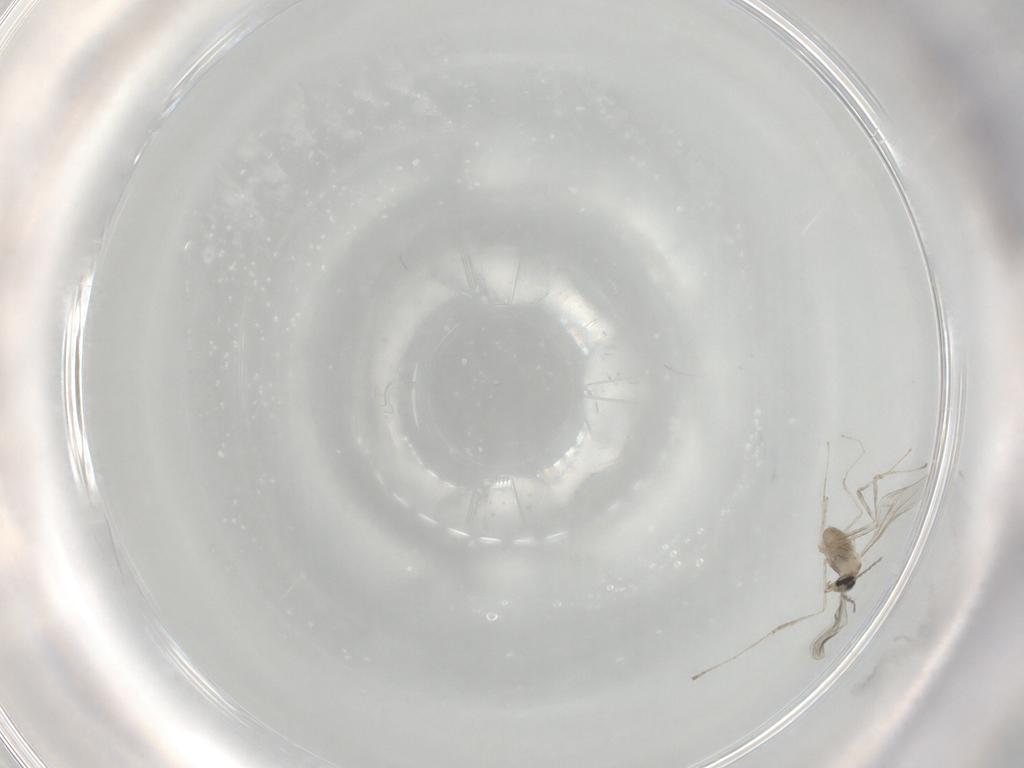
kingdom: Animalia
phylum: Arthropoda
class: Insecta
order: Diptera
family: Cecidomyiidae
